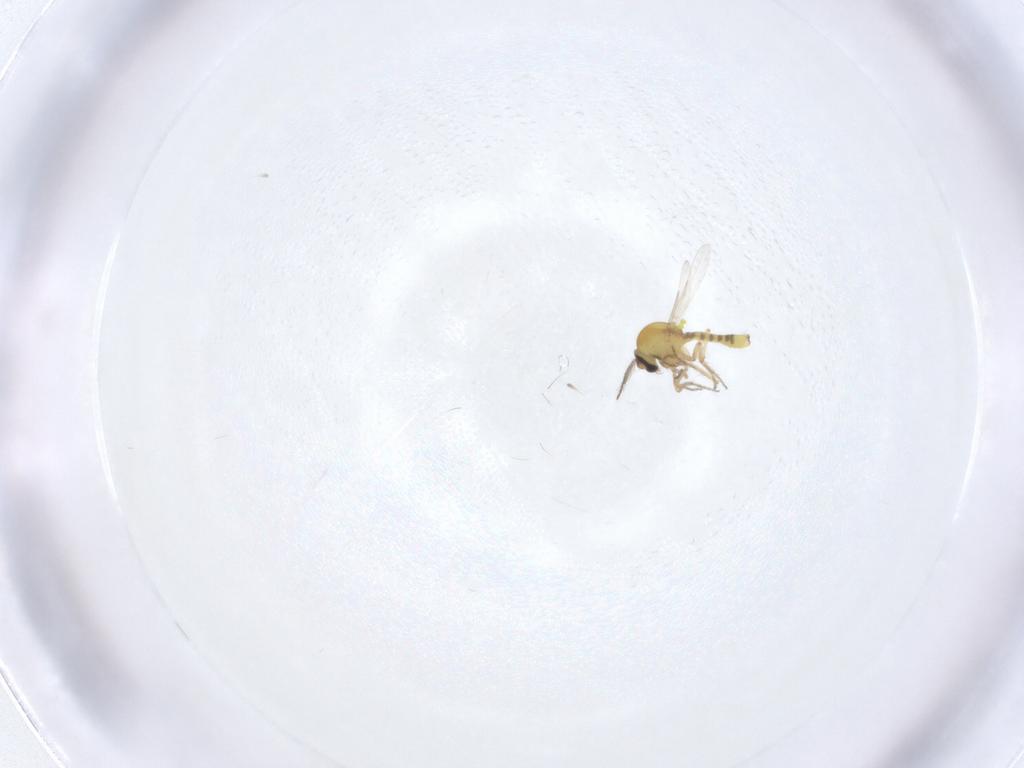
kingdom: Animalia
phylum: Arthropoda
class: Insecta
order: Diptera
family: Ceratopogonidae
